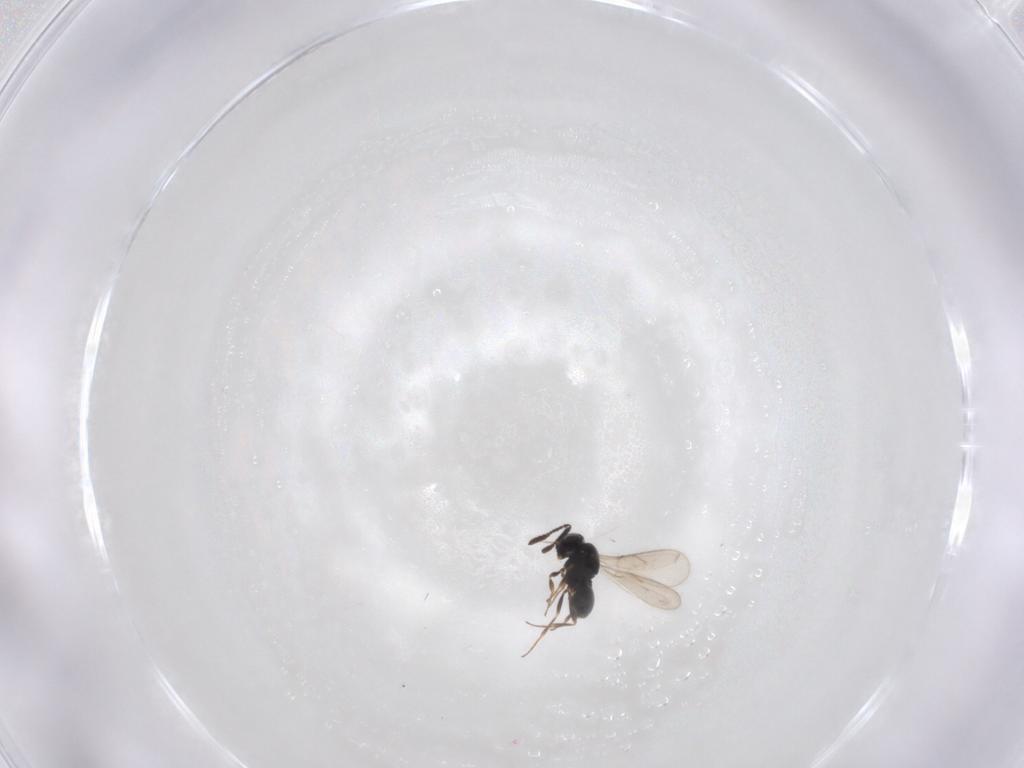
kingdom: Animalia
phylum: Arthropoda
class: Insecta
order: Hymenoptera
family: Scelionidae
